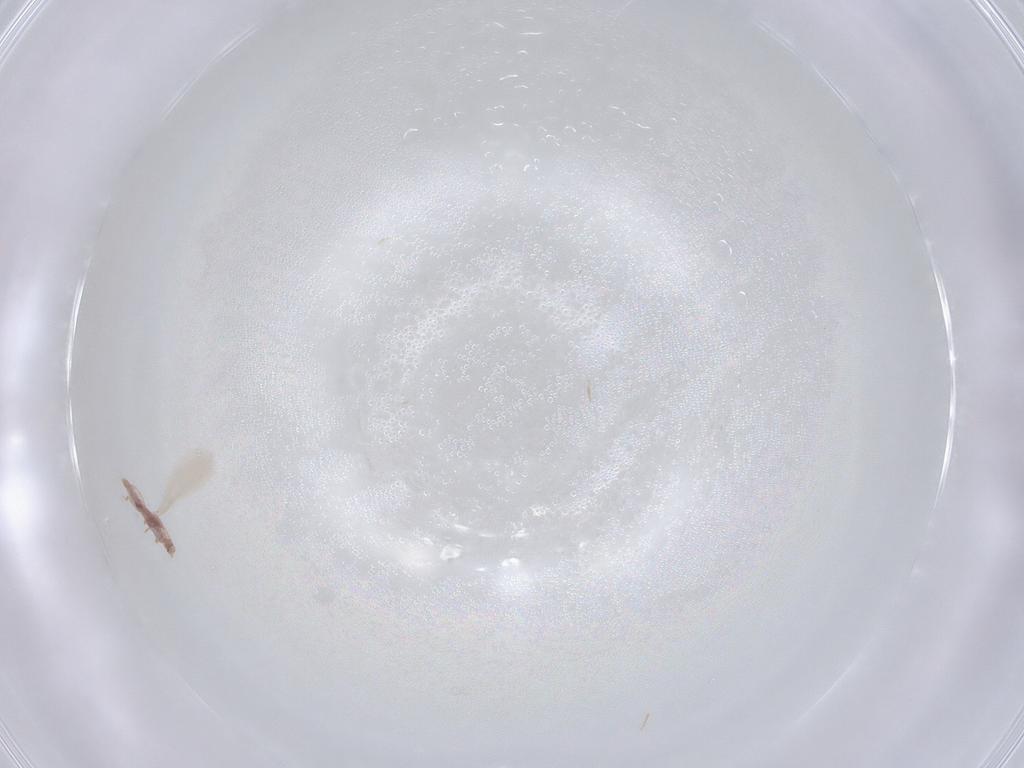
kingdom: Animalia
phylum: Arthropoda
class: Insecta
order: Hemiptera
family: Pseudococcidae
